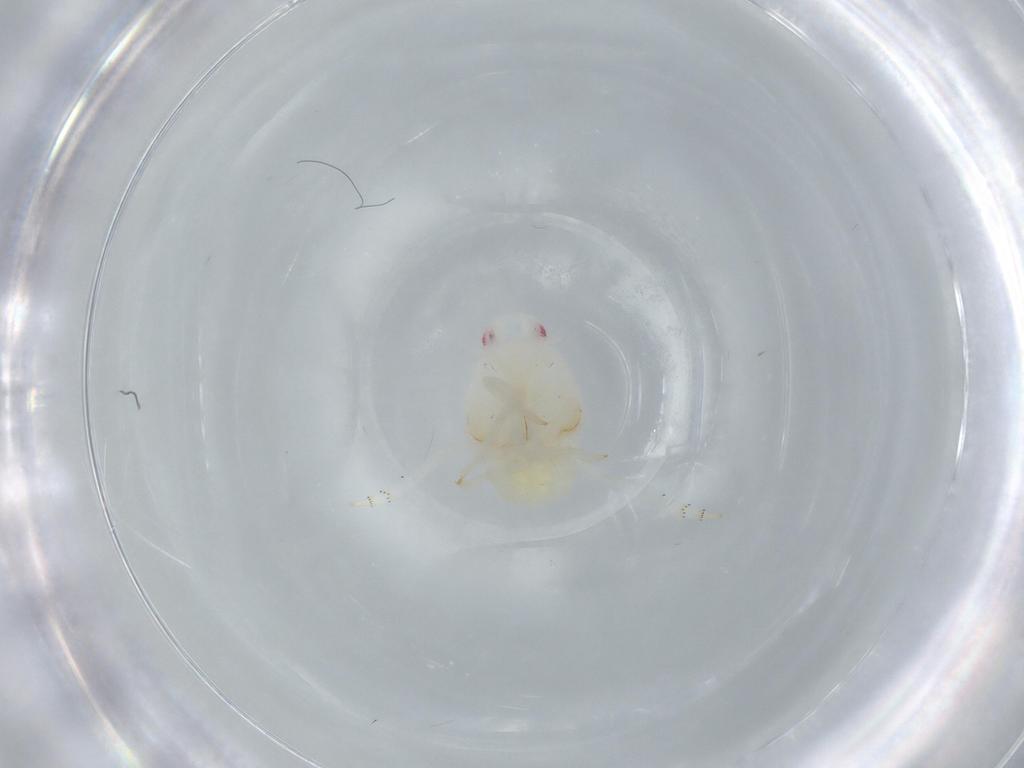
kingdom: Animalia
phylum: Arthropoda
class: Insecta
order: Hemiptera
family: Flatidae
